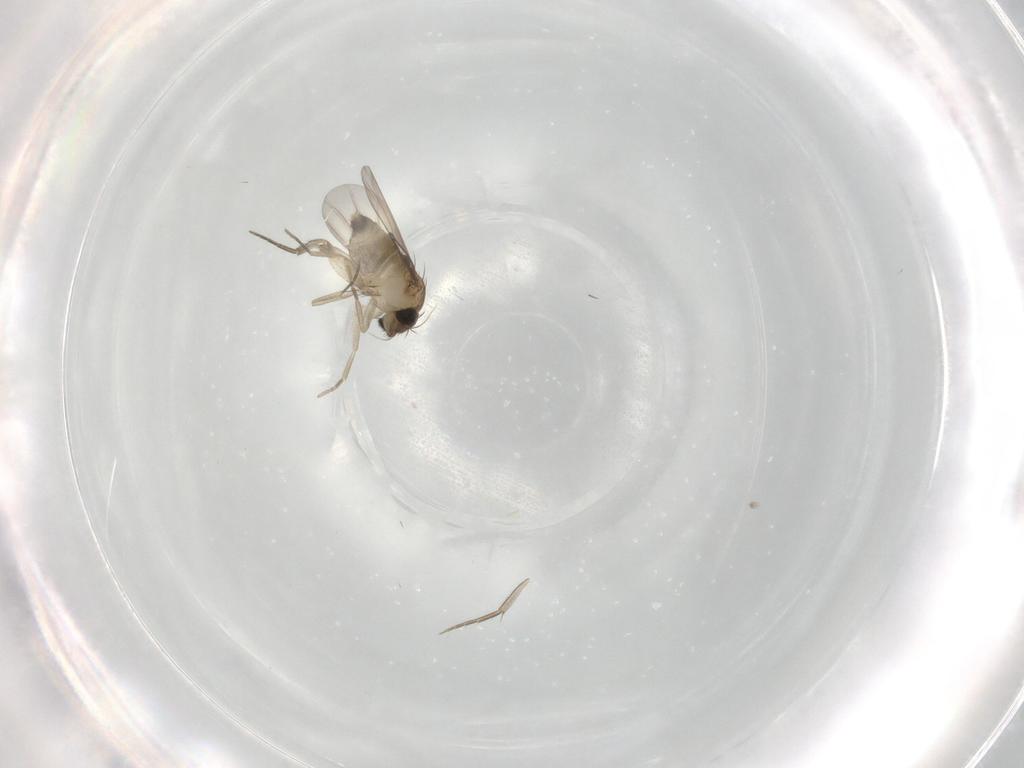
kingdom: Animalia
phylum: Arthropoda
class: Insecta
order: Diptera
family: Phoridae
